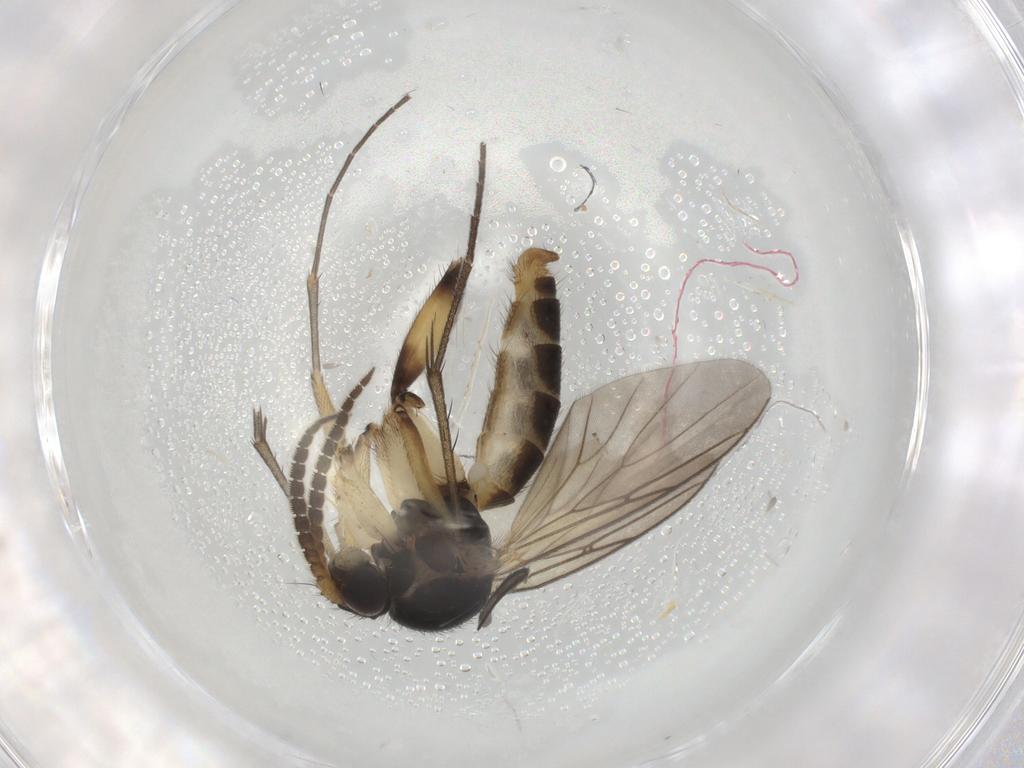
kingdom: Animalia
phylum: Arthropoda
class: Insecta
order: Diptera
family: Mycetophilidae
